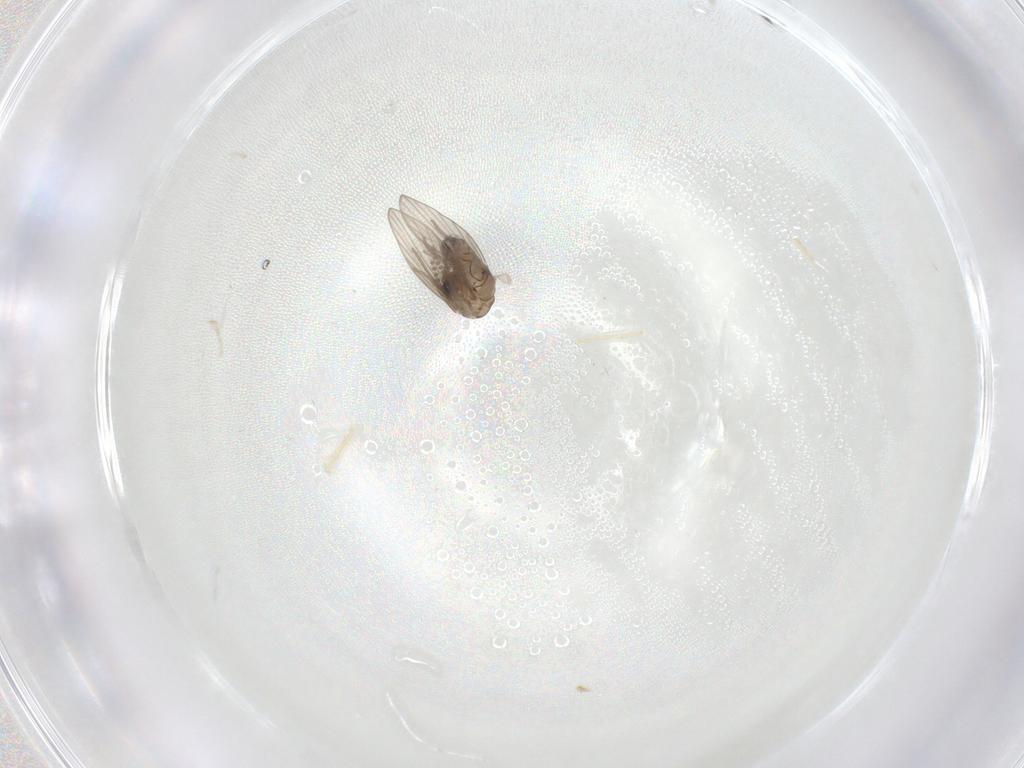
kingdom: Animalia
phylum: Arthropoda
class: Insecta
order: Diptera
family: Psychodidae
